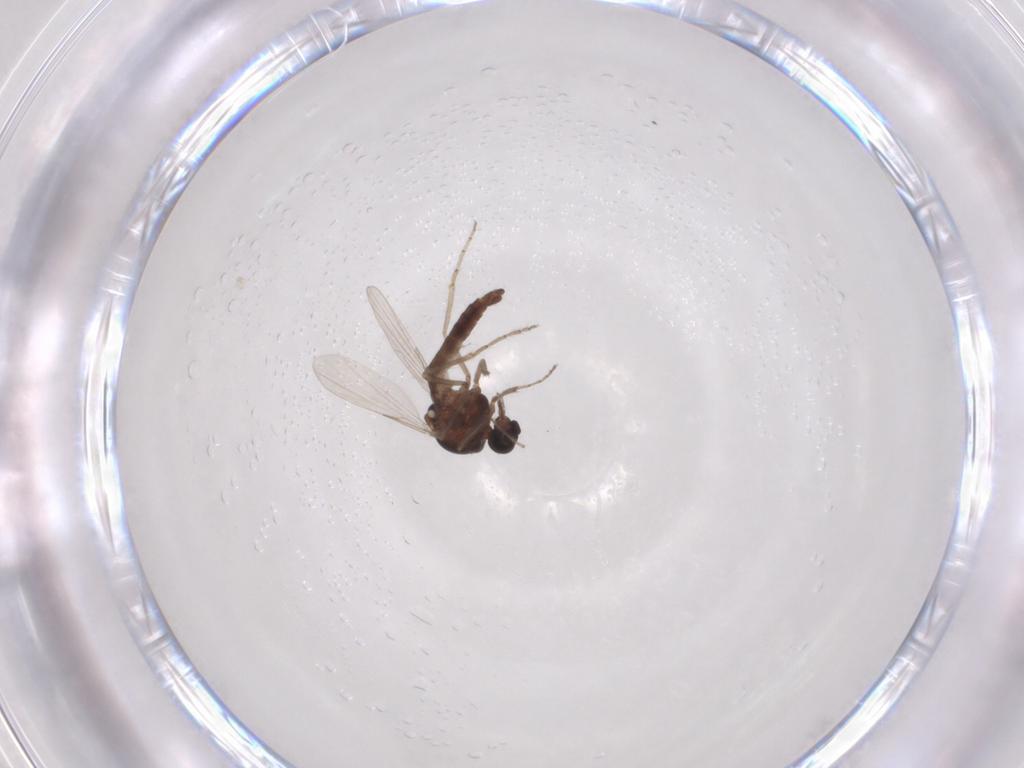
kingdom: Animalia
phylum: Arthropoda
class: Insecta
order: Diptera
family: Ceratopogonidae
